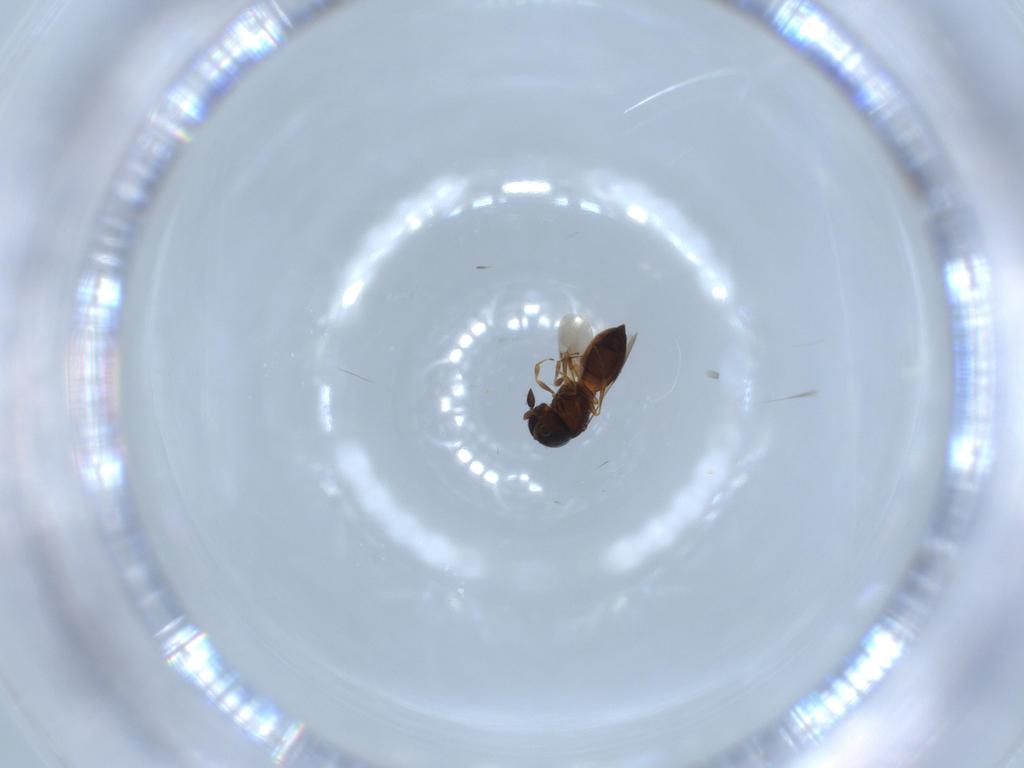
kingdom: Animalia
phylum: Arthropoda
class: Insecta
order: Hymenoptera
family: Scelionidae
